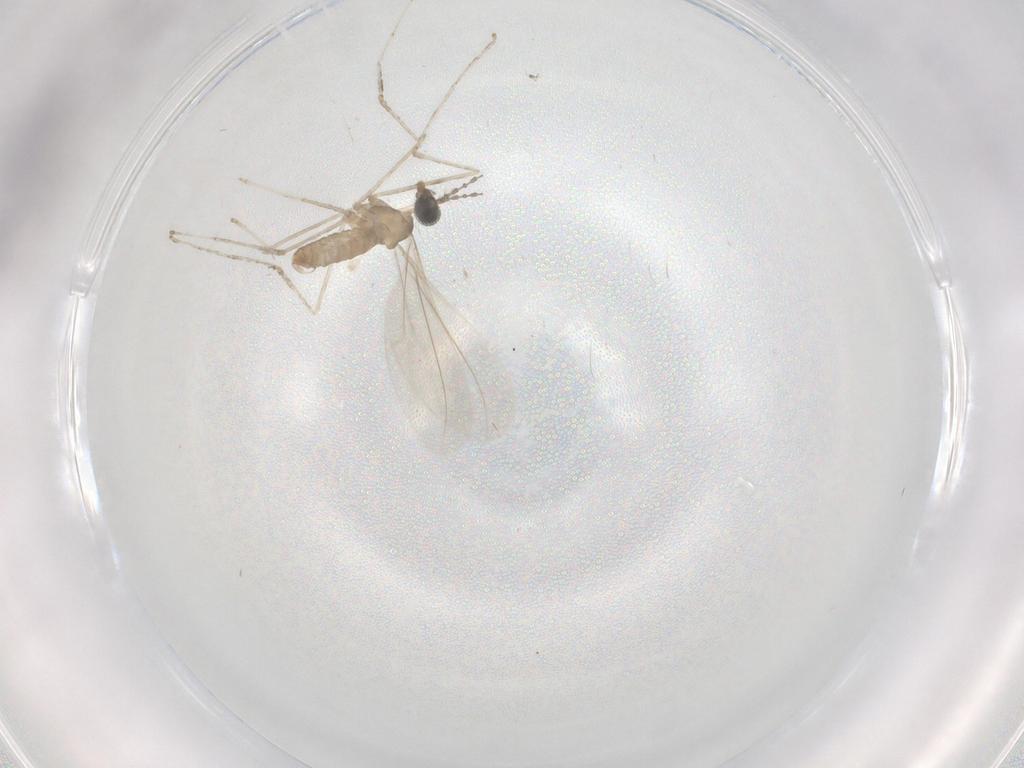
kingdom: Animalia
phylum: Arthropoda
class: Insecta
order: Diptera
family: Cecidomyiidae
